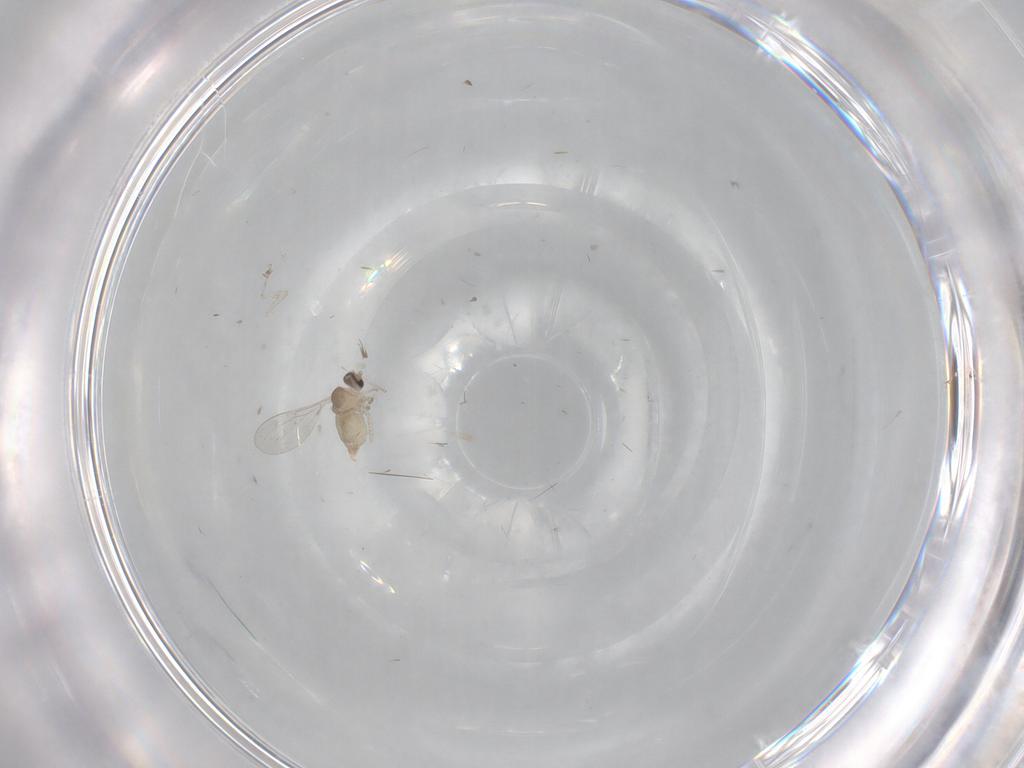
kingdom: Animalia
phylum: Arthropoda
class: Insecta
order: Diptera
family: Cecidomyiidae
